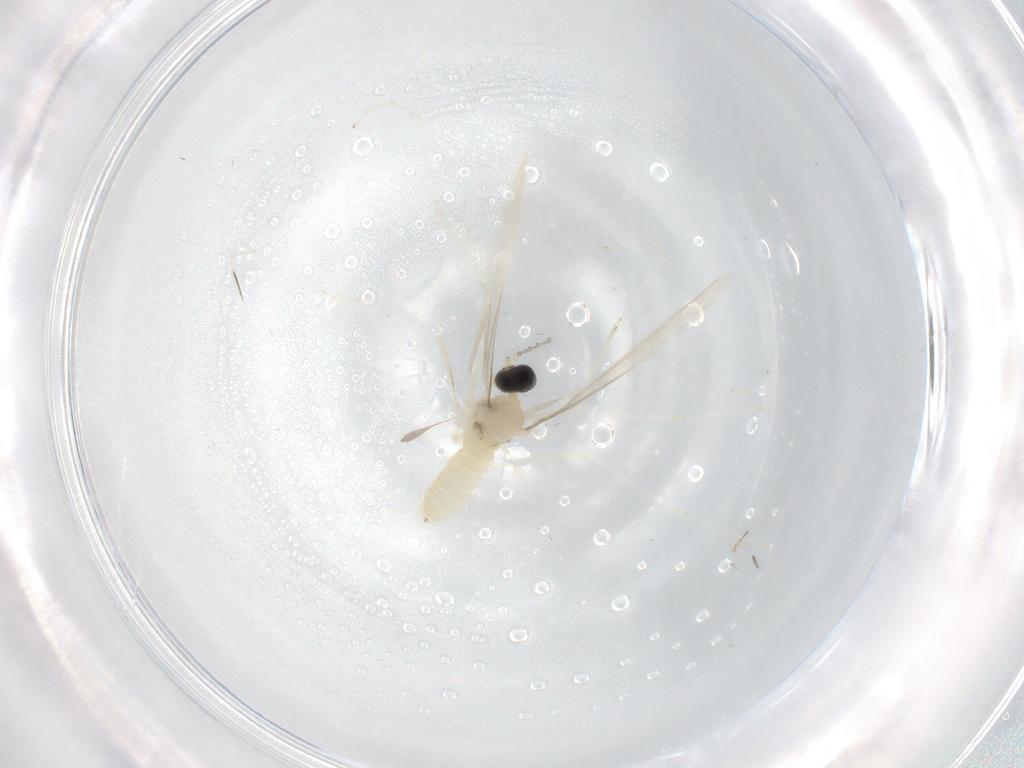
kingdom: Animalia
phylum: Arthropoda
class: Insecta
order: Diptera
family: Cecidomyiidae
